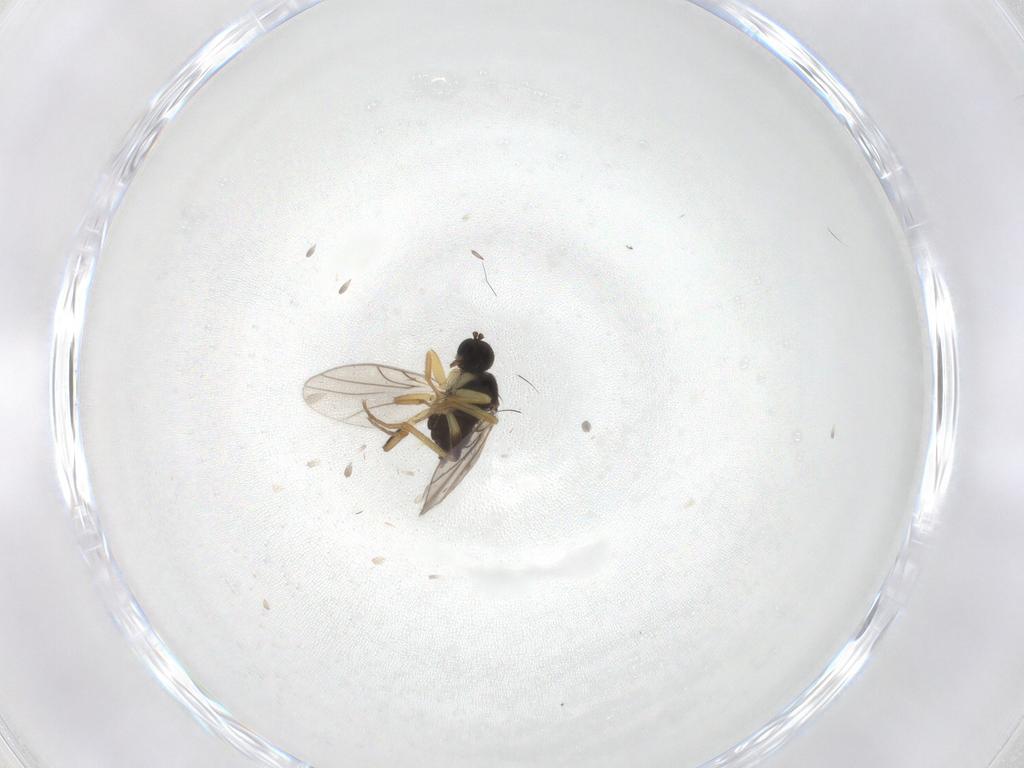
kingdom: Animalia
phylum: Arthropoda
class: Insecta
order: Diptera
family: Hybotidae
